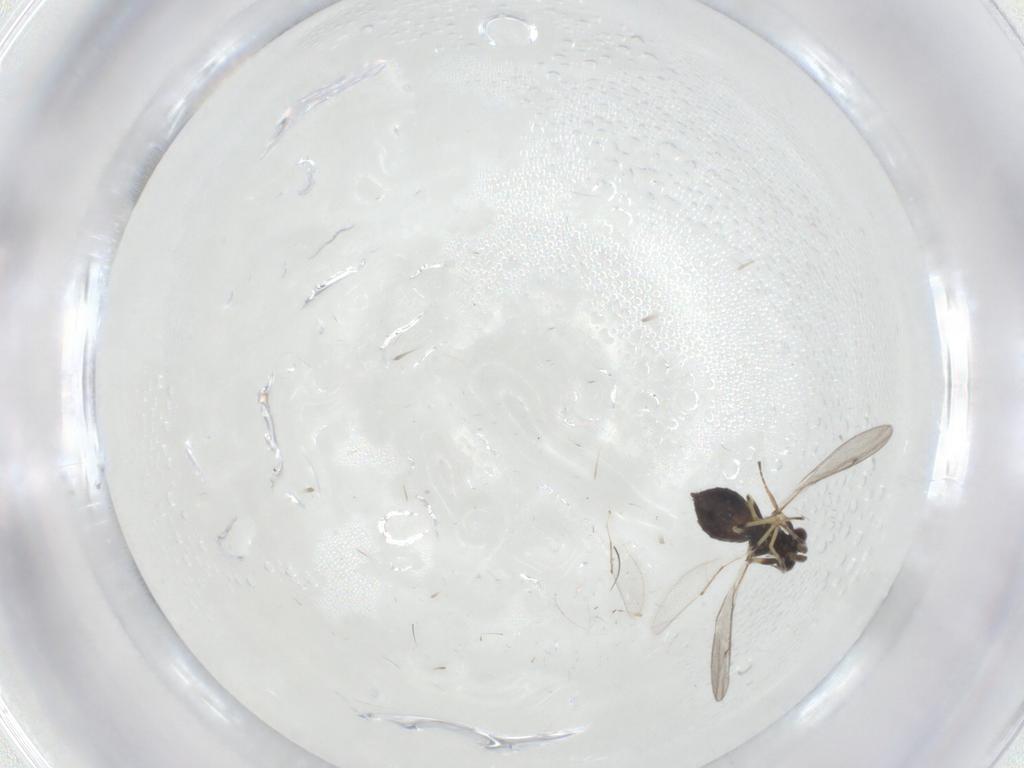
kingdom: Animalia
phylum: Arthropoda
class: Insecta
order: Hymenoptera
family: Eulophidae
